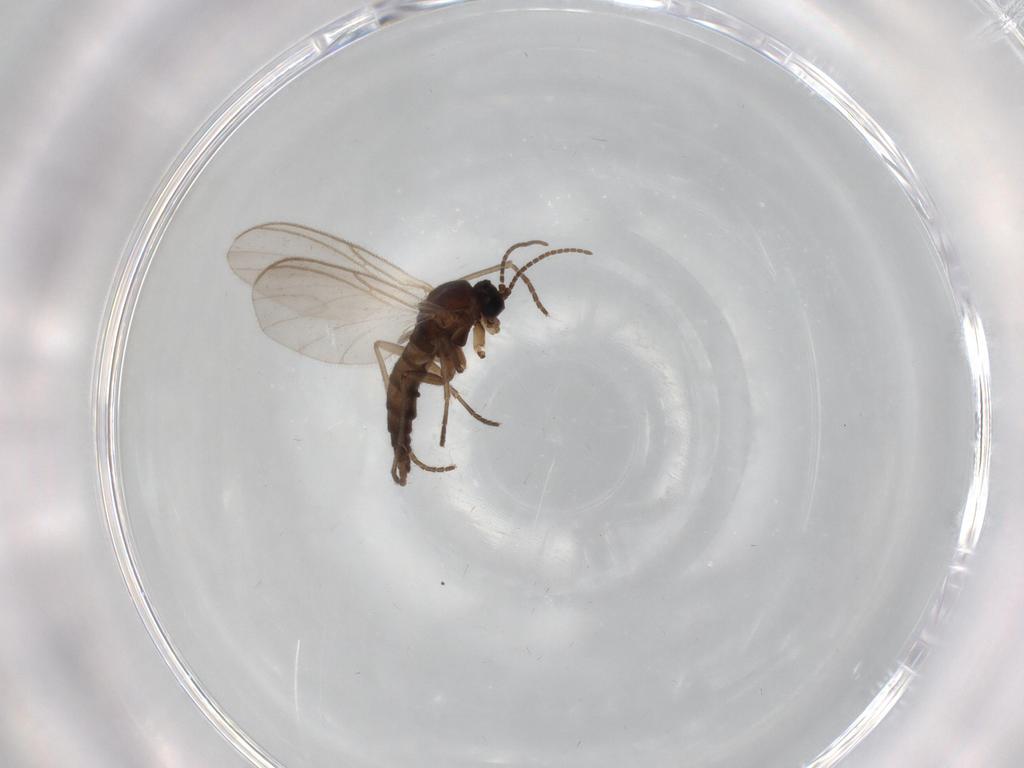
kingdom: Animalia
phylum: Arthropoda
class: Insecta
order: Diptera
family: Sciaridae
